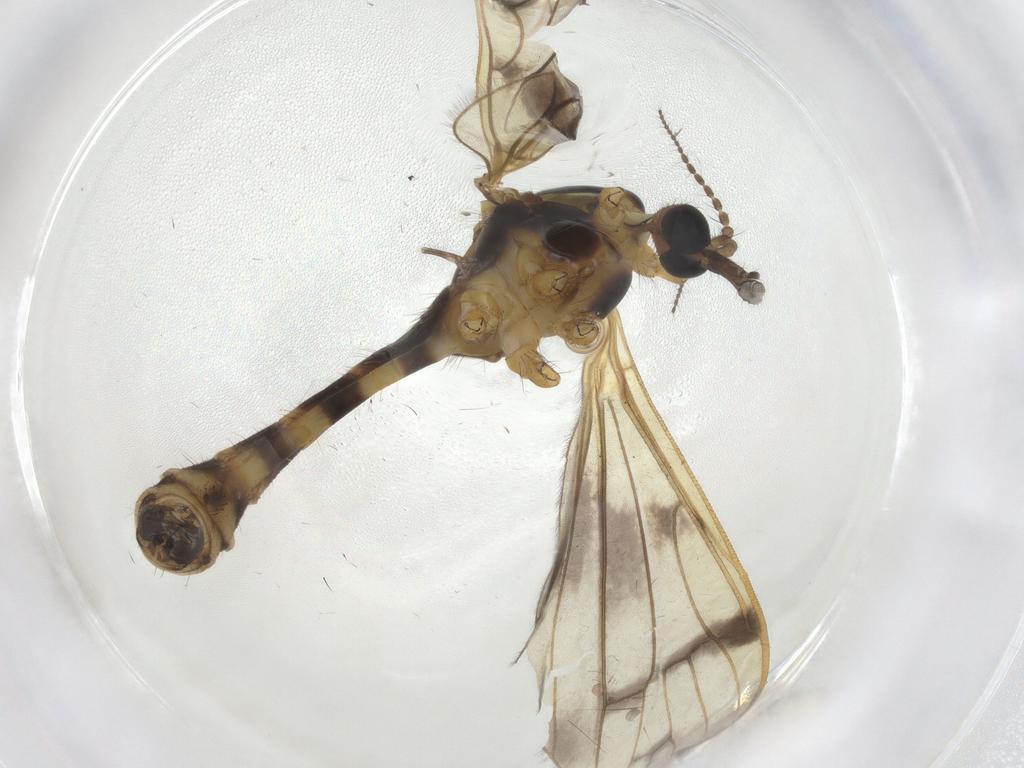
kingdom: Animalia
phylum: Arthropoda
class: Insecta
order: Diptera
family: Limoniidae
